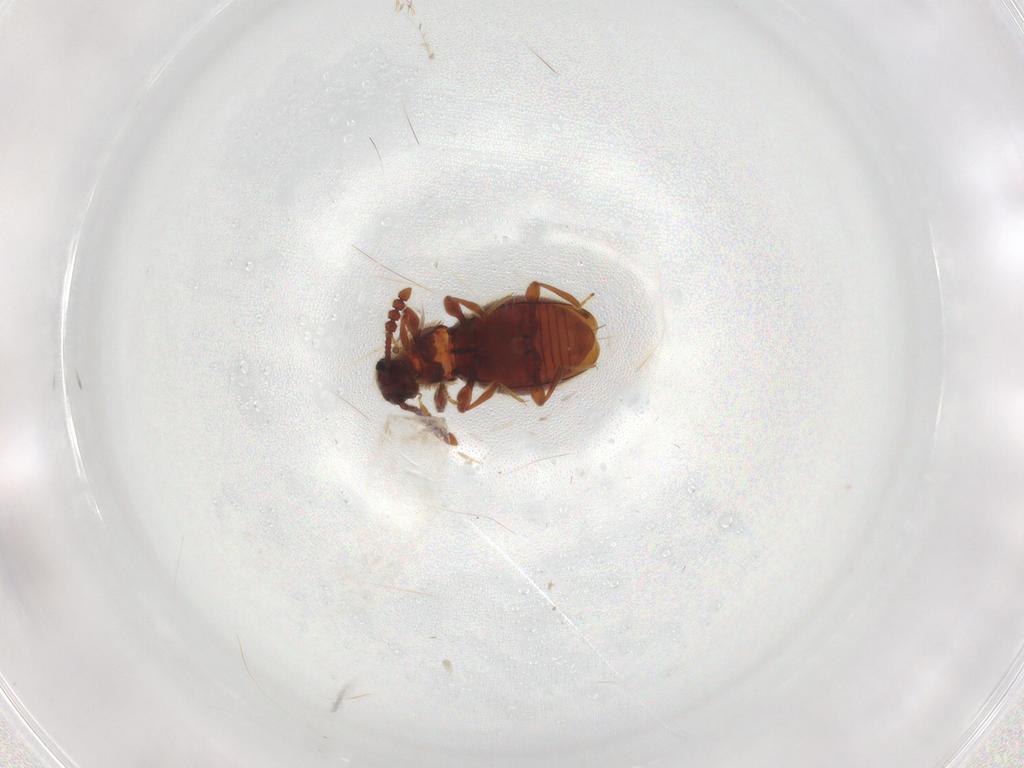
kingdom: Animalia
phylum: Arthropoda
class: Insecta
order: Coleoptera
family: Staphylinidae
